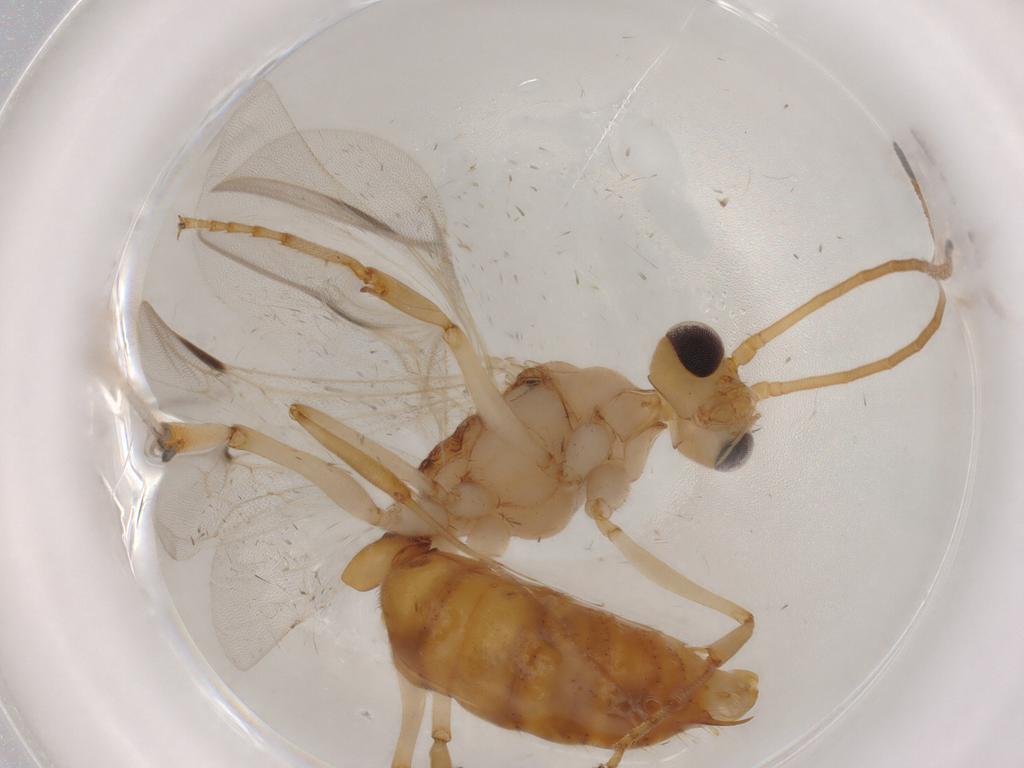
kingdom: Animalia
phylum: Arthropoda
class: Insecta
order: Hymenoptera
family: Formicidae
